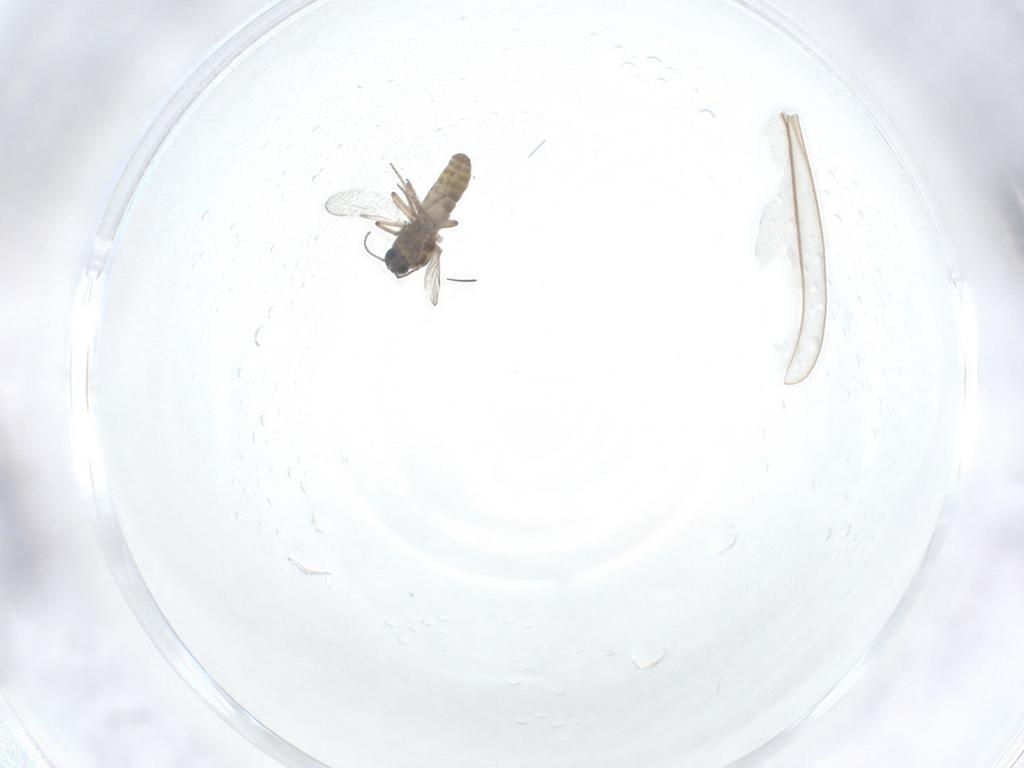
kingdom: Animalia
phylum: Arthropoda
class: Insecta
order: Diptera
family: Ceratopogonidae
